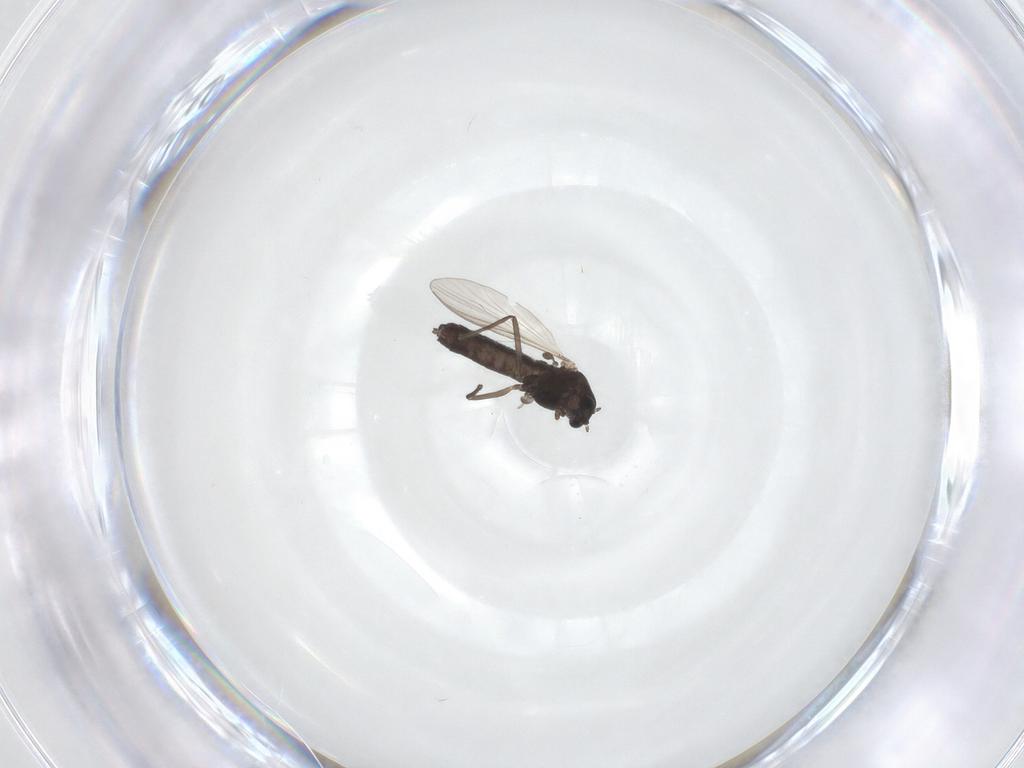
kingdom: Animalia
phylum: Arthropoda
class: Insecta
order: Diptera
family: Chironomidae
